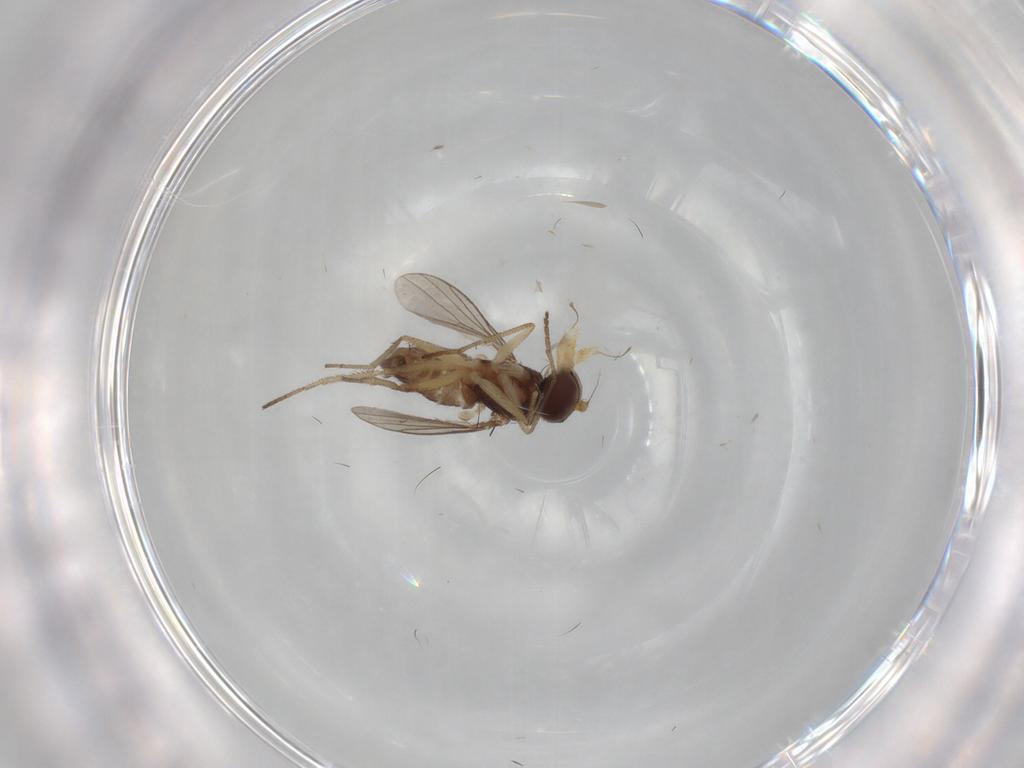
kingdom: Animalia
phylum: Arthropoda
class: Insecta
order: Diptera
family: Dolichopodidae
